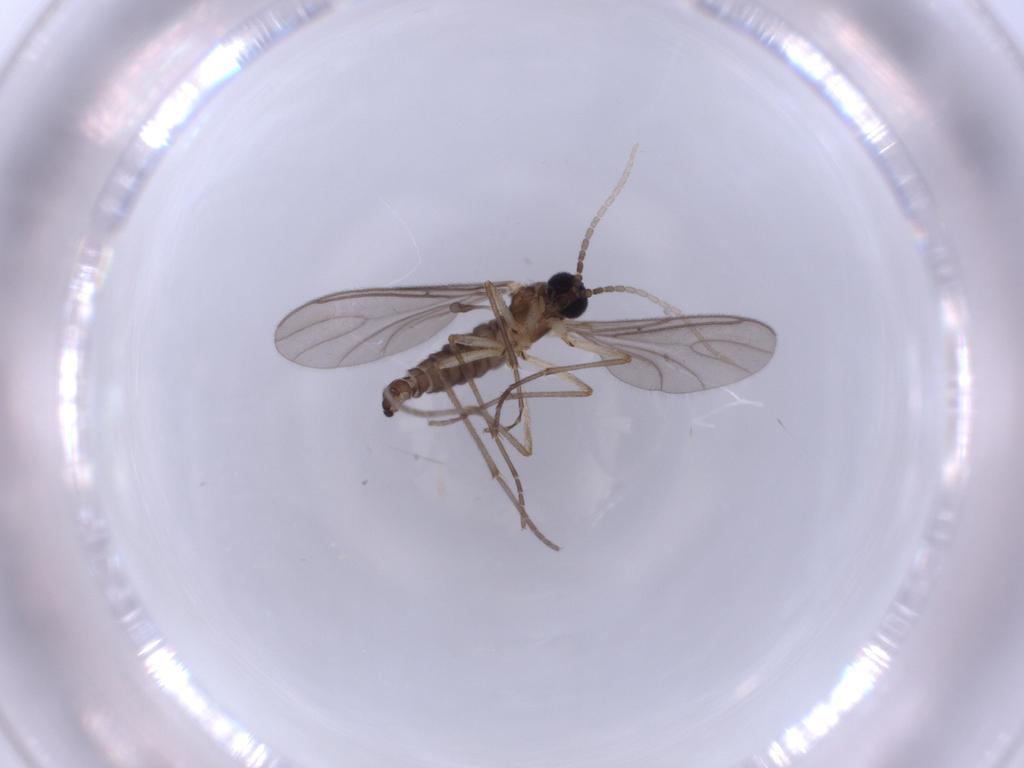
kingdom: Animalia
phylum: Arthropoda
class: Insecta
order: Diptera
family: Sciaridae
